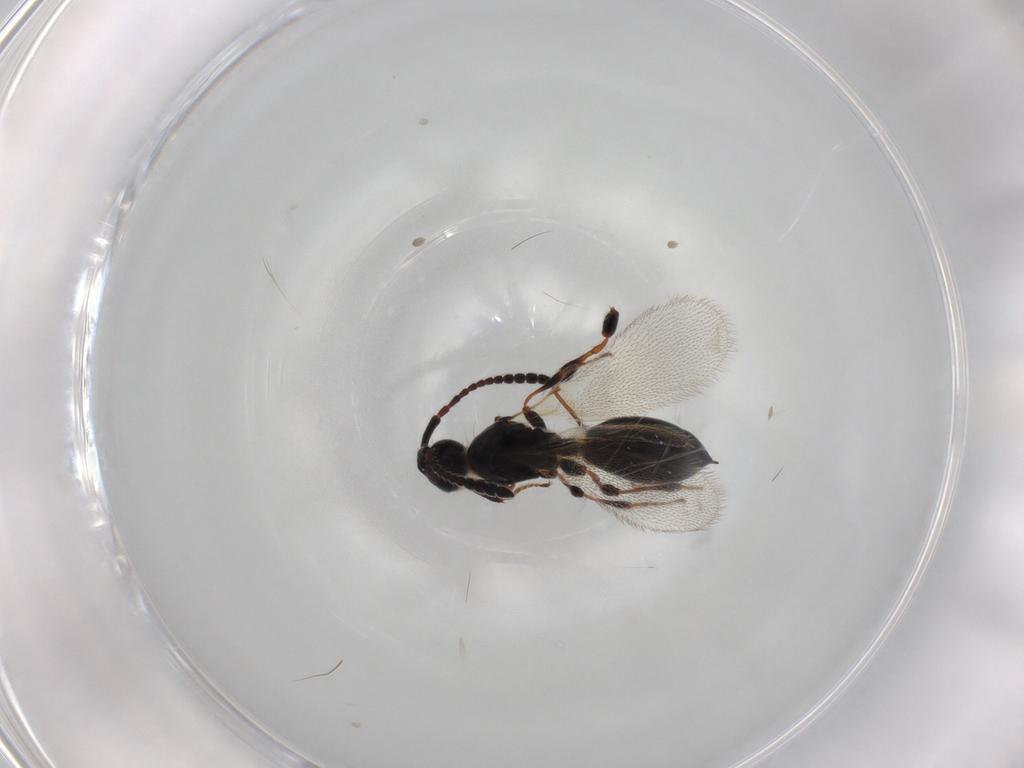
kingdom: Animalia
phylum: Arthropoda
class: Insecta
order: Hymenoptera
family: Diapriidae
